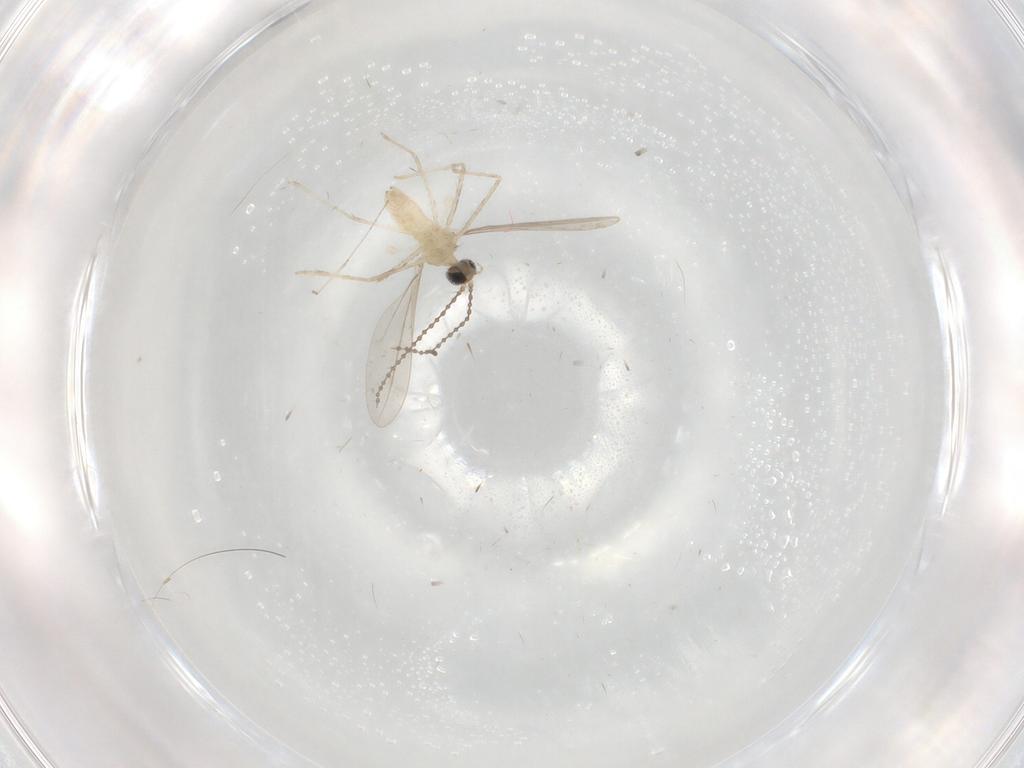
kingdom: Animalia
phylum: Arthropoda
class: Insecta
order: Diptera
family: Cecidomyiidae
